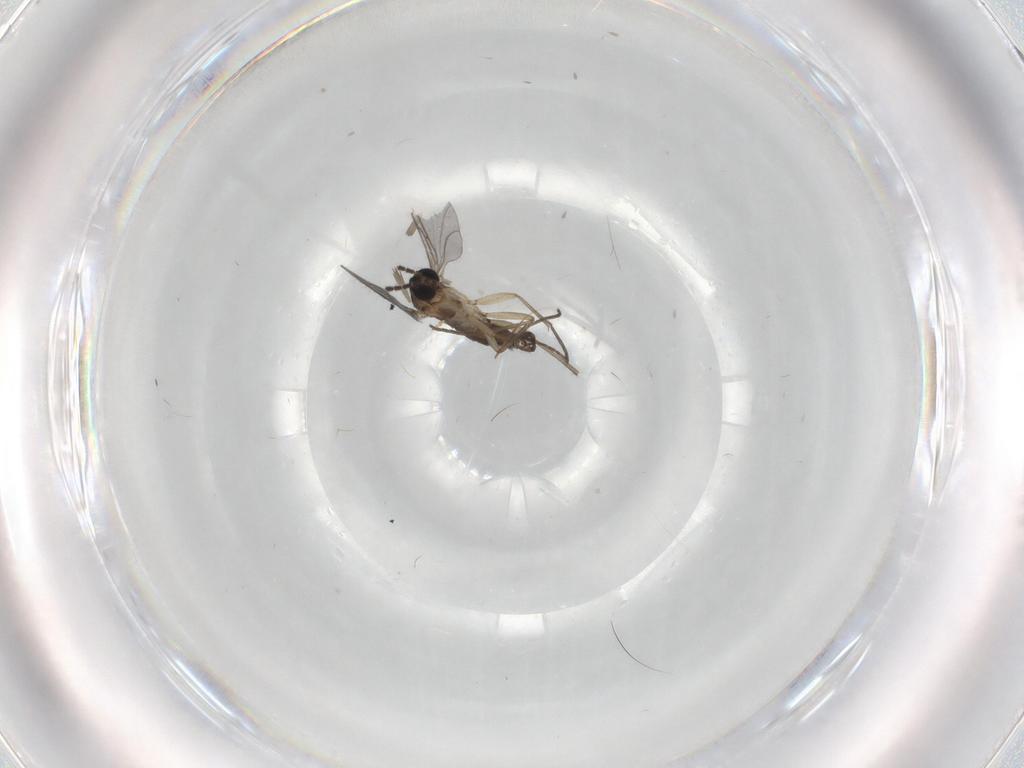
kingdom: Animalia
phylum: Arthropoda
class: Insecta
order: Diptera
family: Sciaridae
